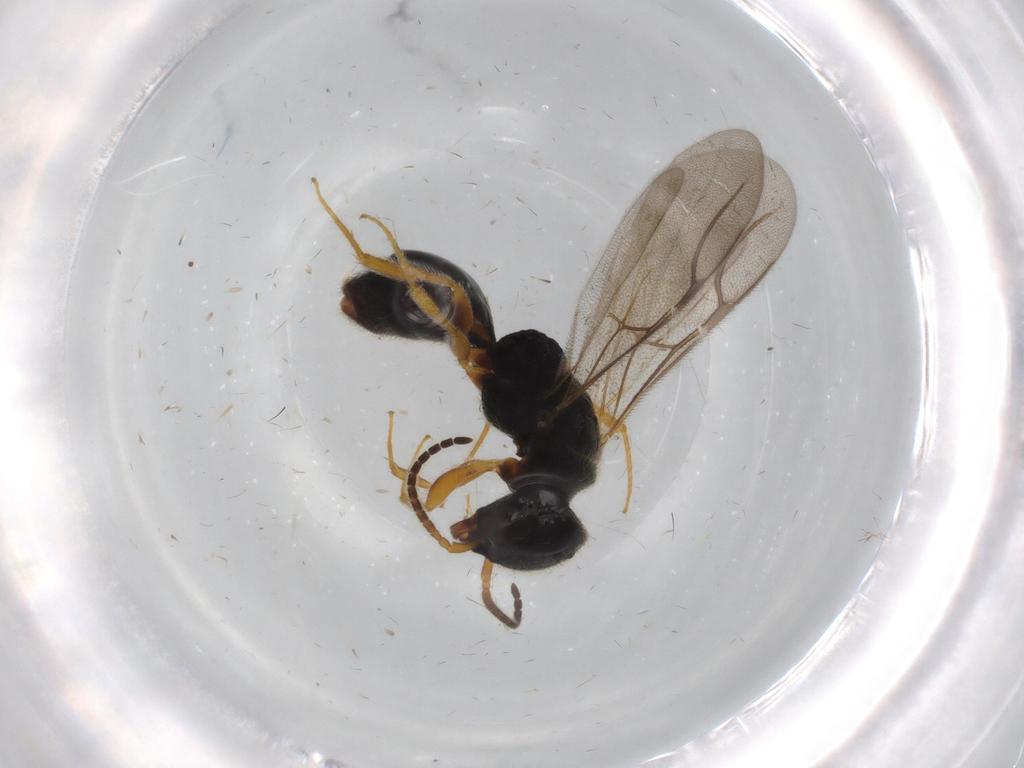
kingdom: Animalia
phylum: Arthropoda
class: Insecta
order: Hymenoptera
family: Bethylidae
